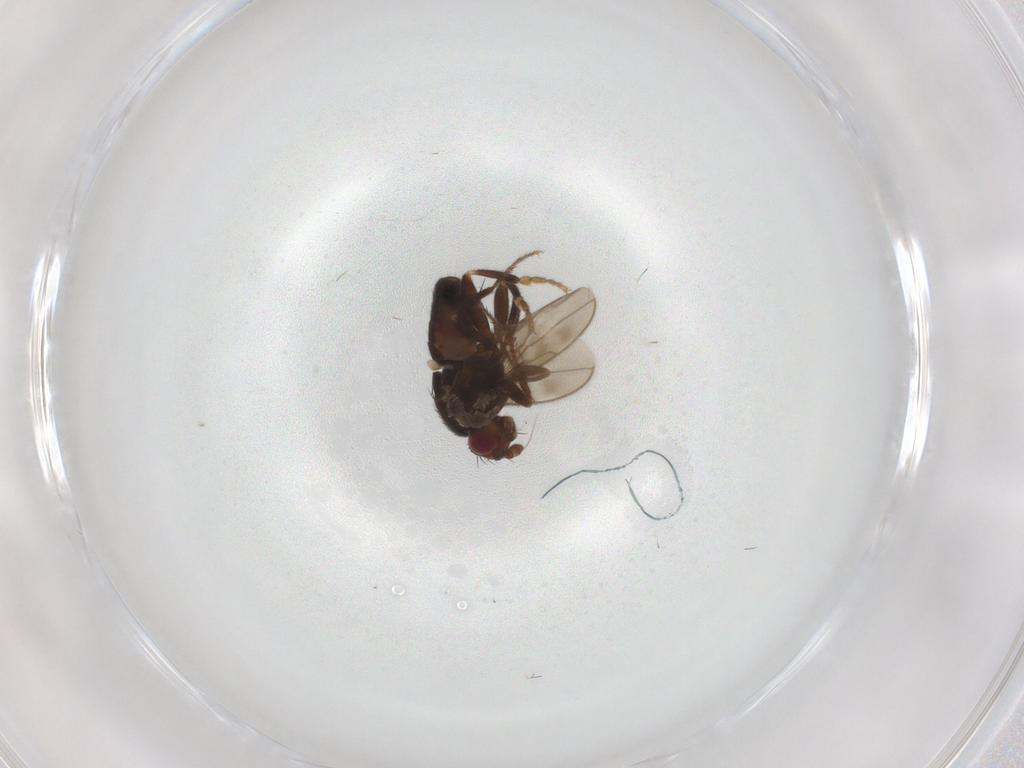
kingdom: Animalia
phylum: Arthropoda
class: Insecta
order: Diptera
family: Sphaeroceridae
